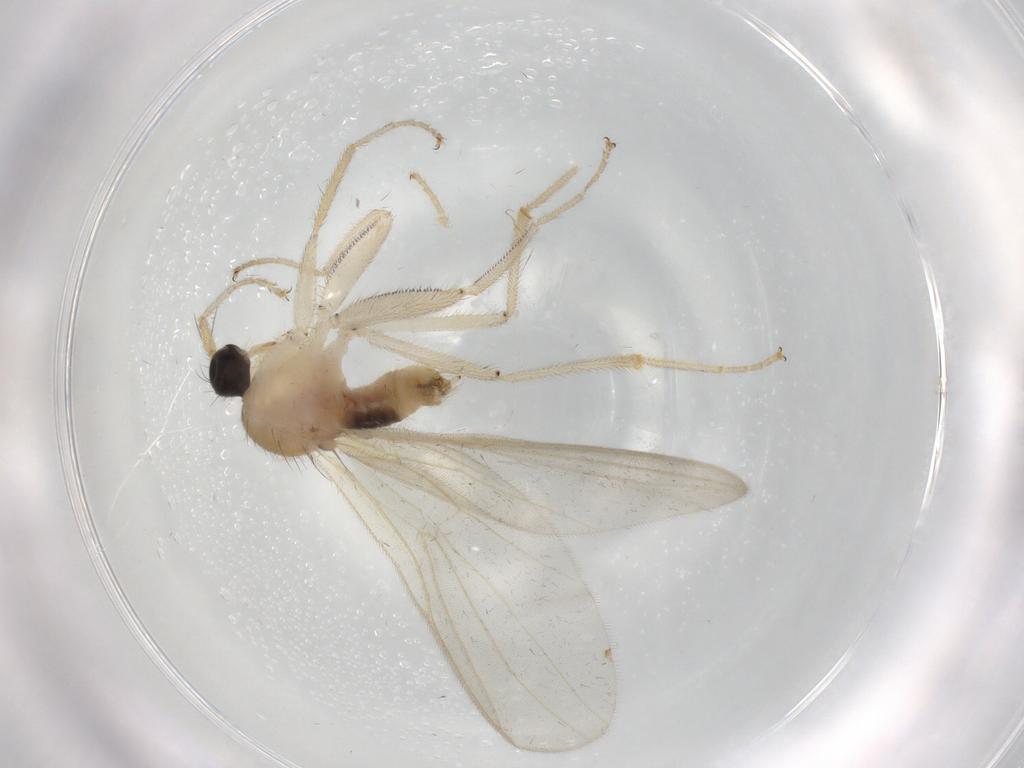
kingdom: Animalia
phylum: Arthropoda
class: Insecta
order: Diptera
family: Hybotidae
